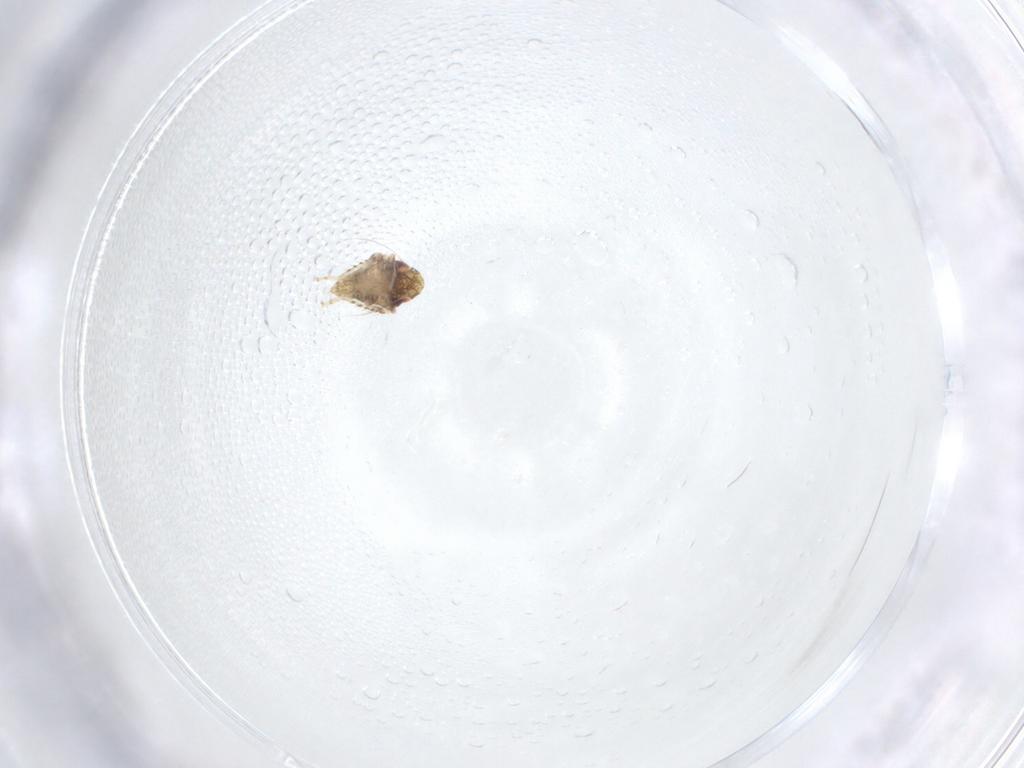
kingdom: Animalia
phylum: Arthropoda
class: Insecta
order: Hemiptera
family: Cicadellidae
